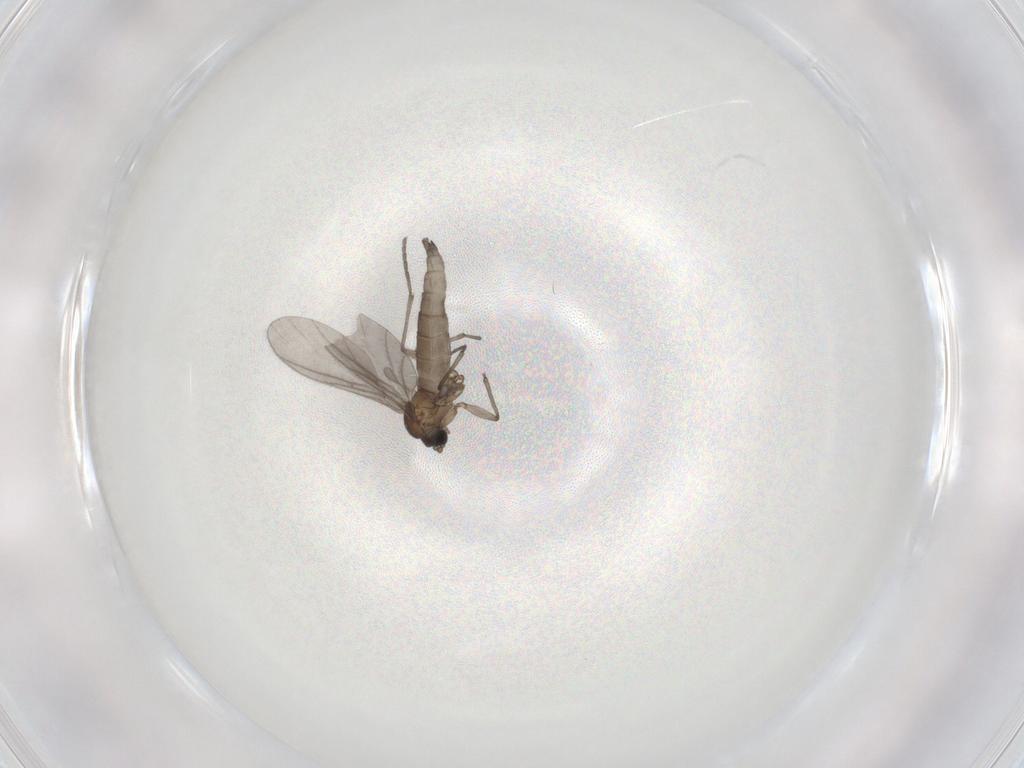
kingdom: Animalia
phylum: Arthropoda
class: Insecta
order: Diptera
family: Sciaridae
